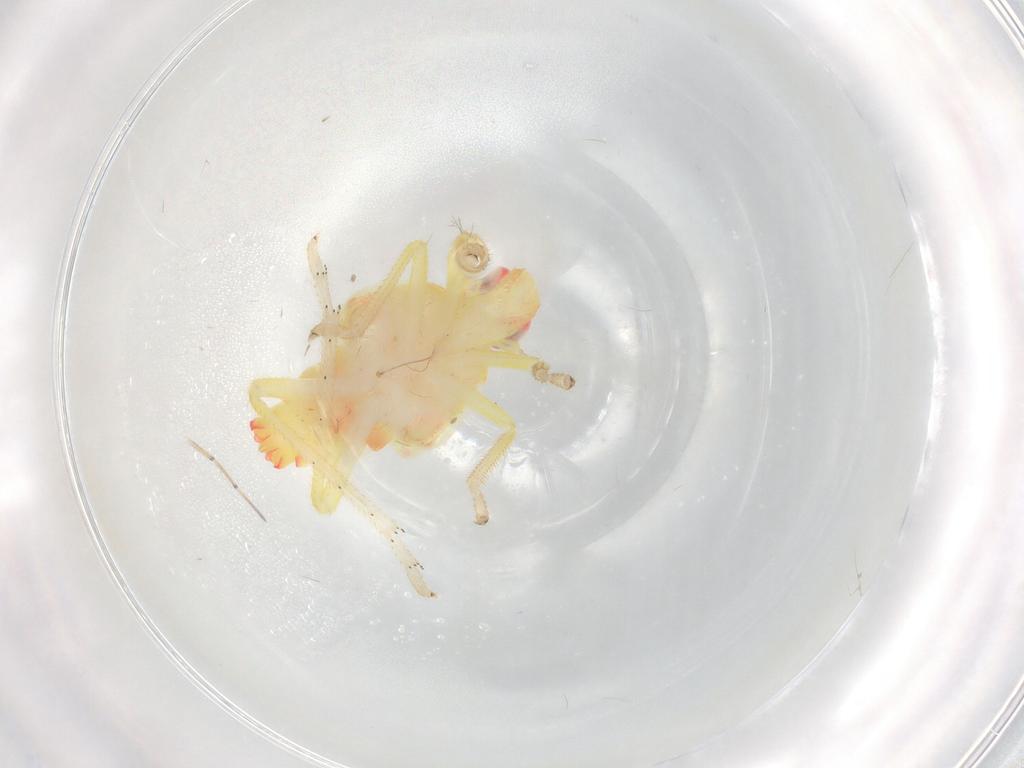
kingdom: Animalia
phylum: Arthropoda
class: Insecta
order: Hemiptera
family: Tropiduchidae
